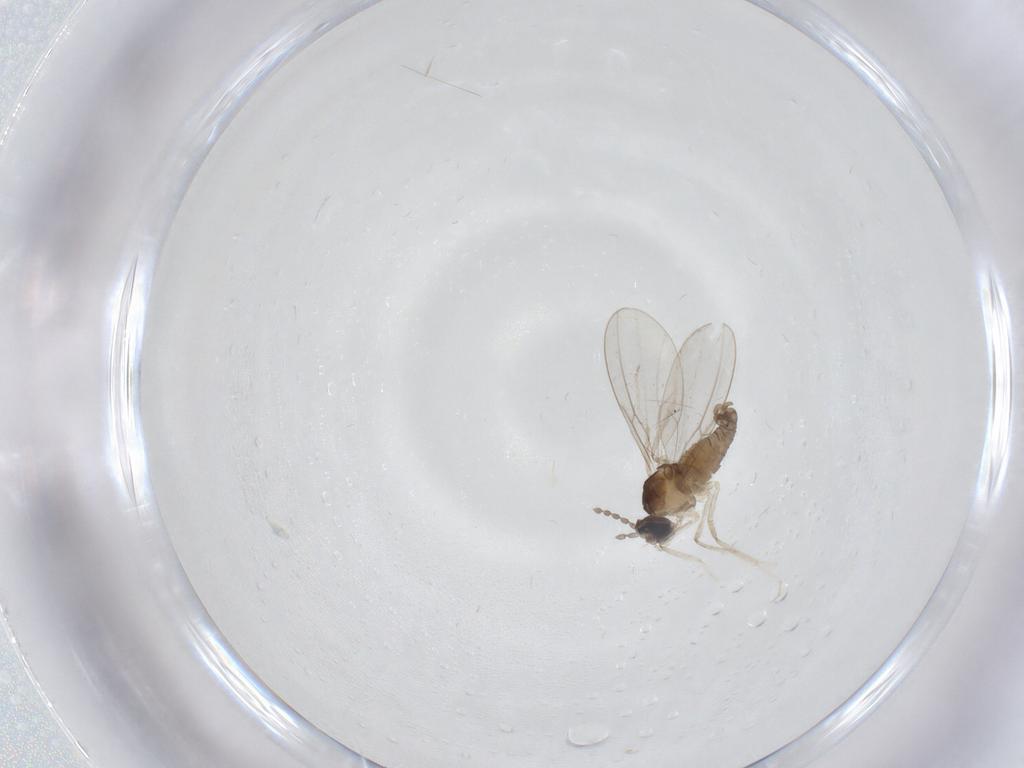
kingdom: Animalia
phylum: Arthropoda
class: Insecta
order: Diptera
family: Cecidomyiidae
